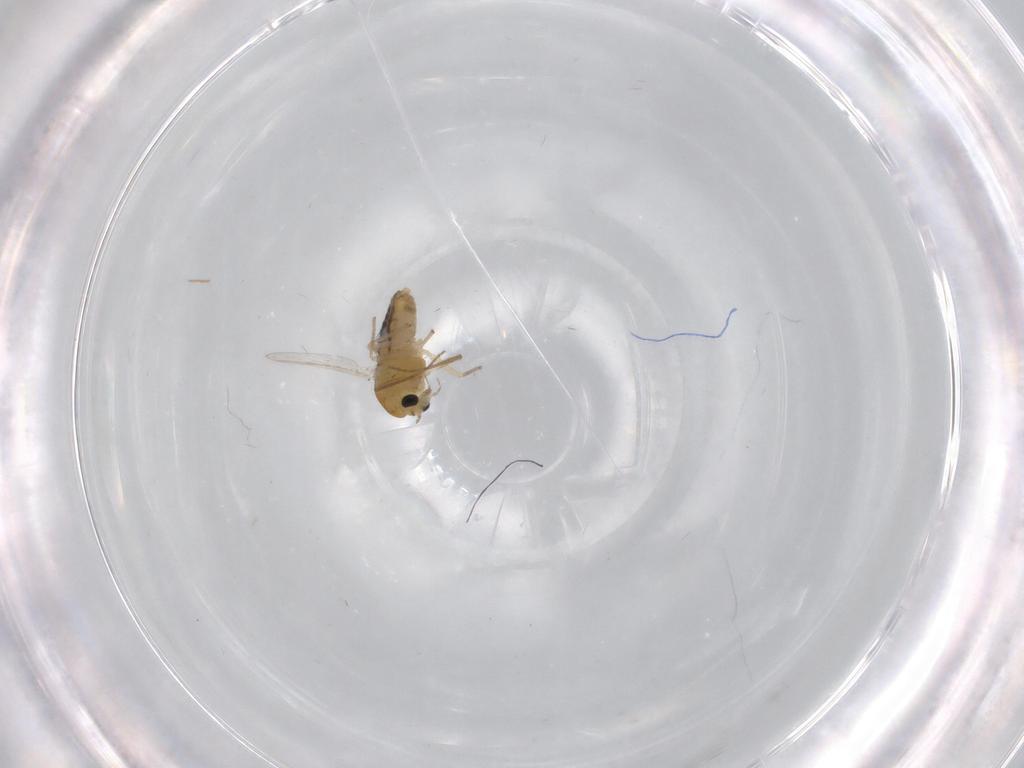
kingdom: Animalia
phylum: Arthropoda
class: Insecta
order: Diptera
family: Chironomidae
